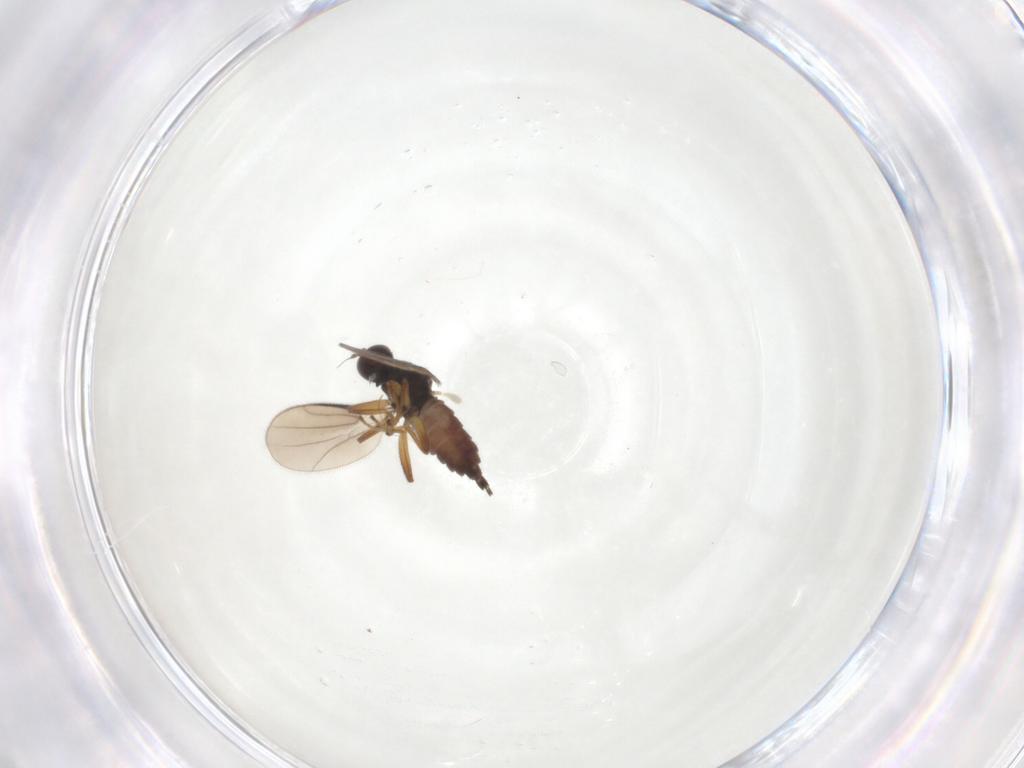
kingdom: Animalia
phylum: Arthropoda
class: Insecta
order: Diptera
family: Hybotidae
